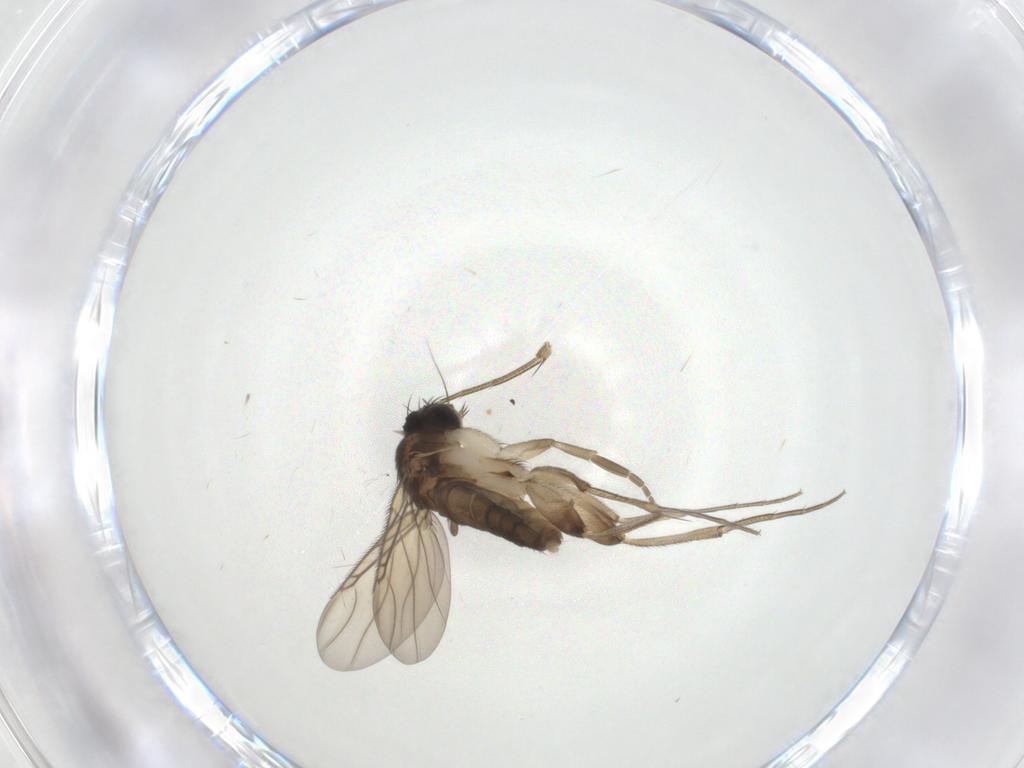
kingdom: Animalia
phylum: Arthropoda
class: Insecta
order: Diptera
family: Phoridae
